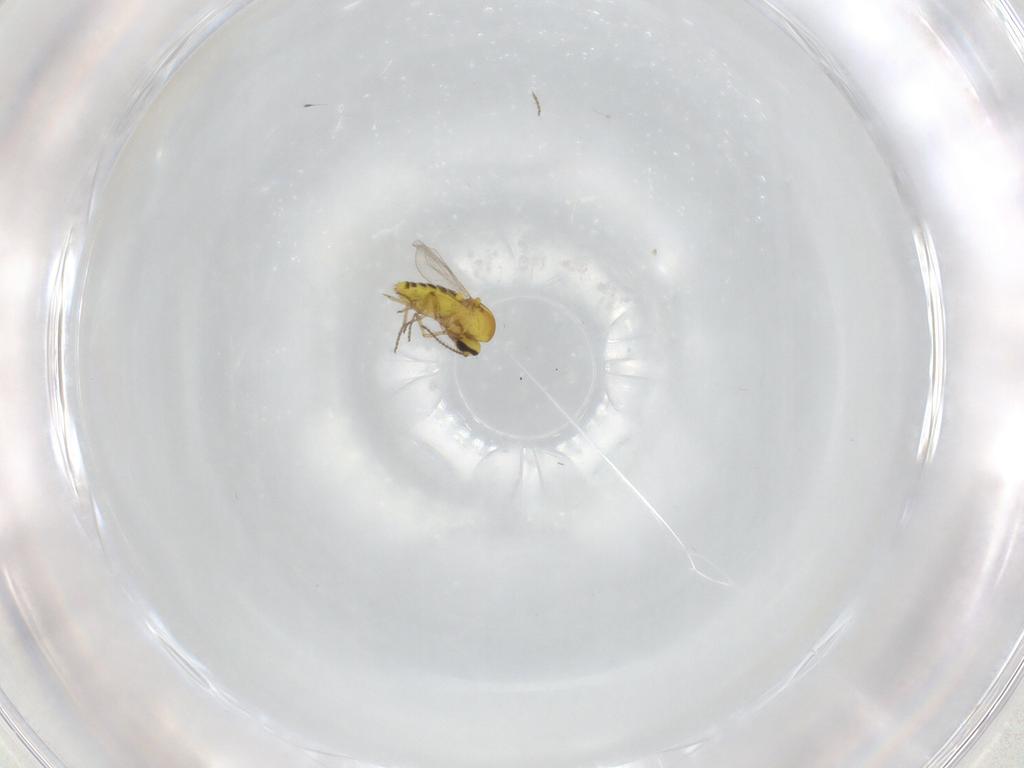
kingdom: Animalia
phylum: Arthropoda
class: Insecta
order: Diptera
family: Ceratopogonidae
